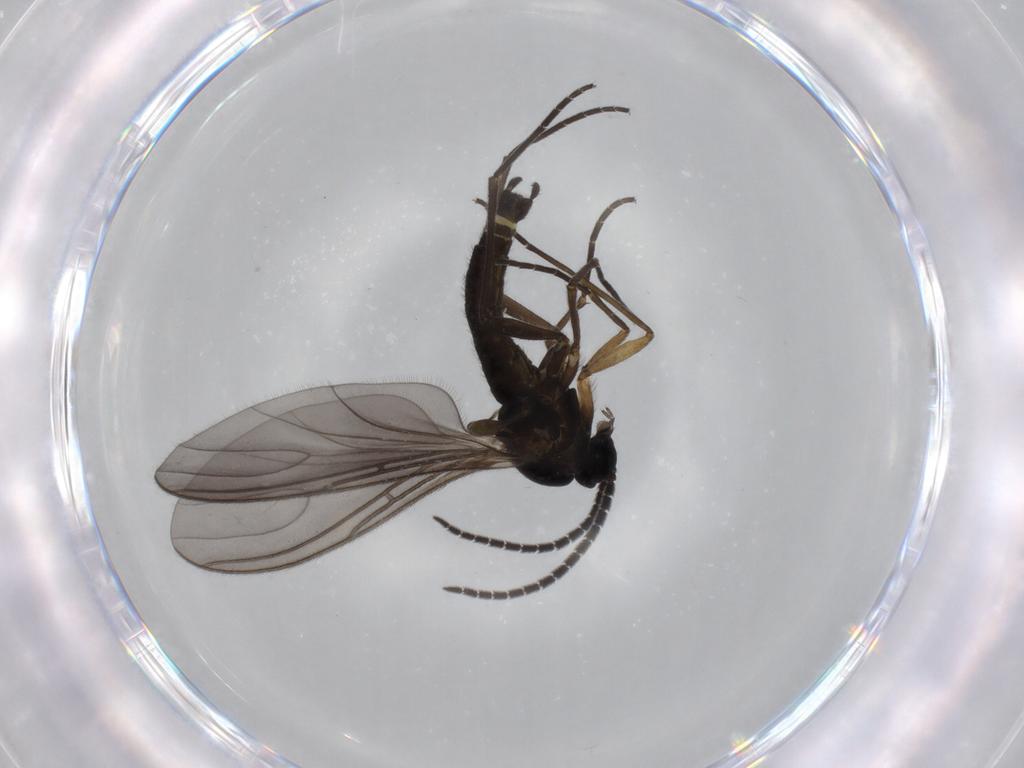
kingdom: Animalia
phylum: Arthropoda
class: Insecta
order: Diptera
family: Sciaridae
